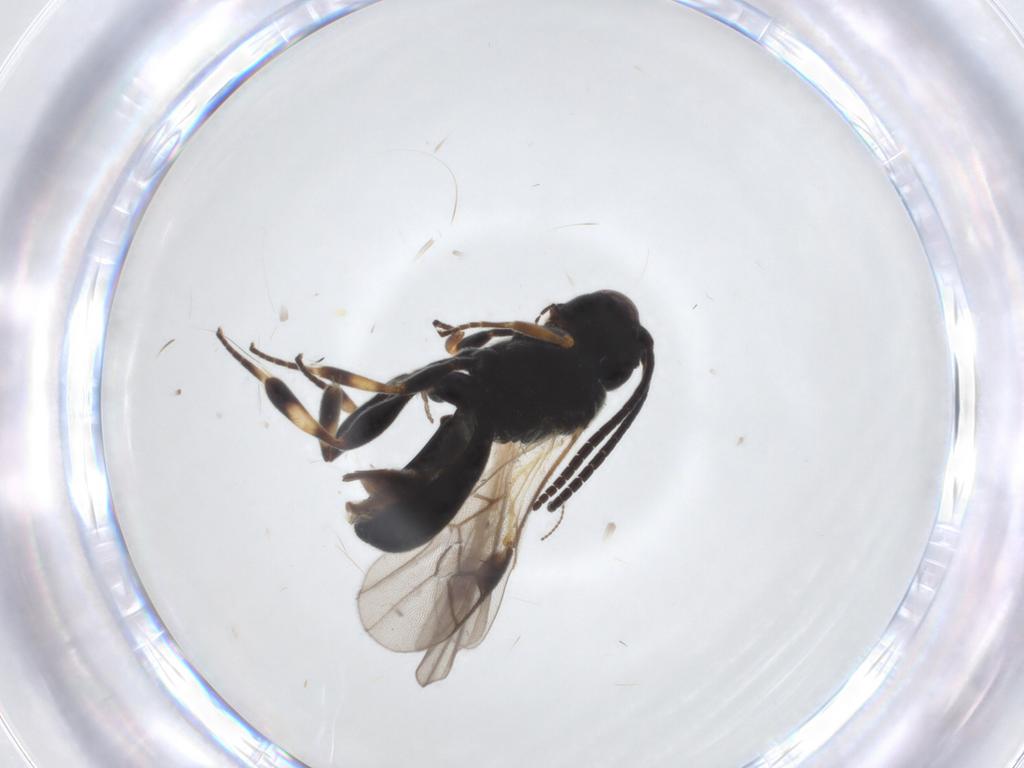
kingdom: Animalia
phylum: Arthropoda
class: Insecta
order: Hymenoptera
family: Braconidae
